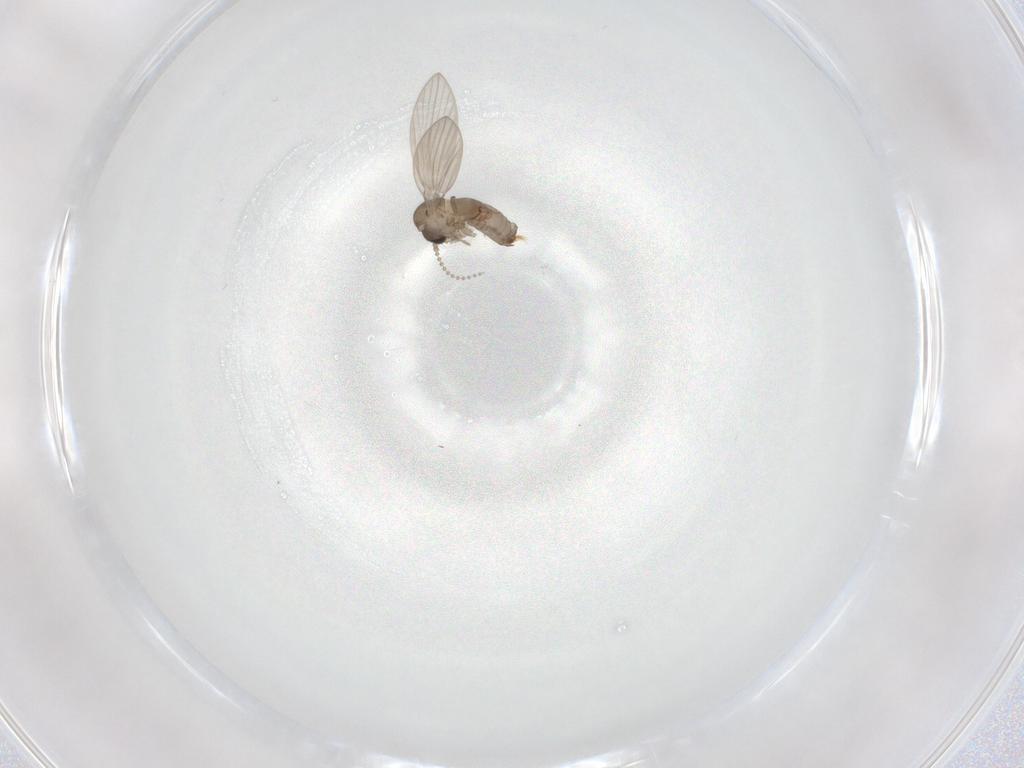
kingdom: Animalia
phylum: Arthropoda
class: Insecta
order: Diptera
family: Psychodidae
